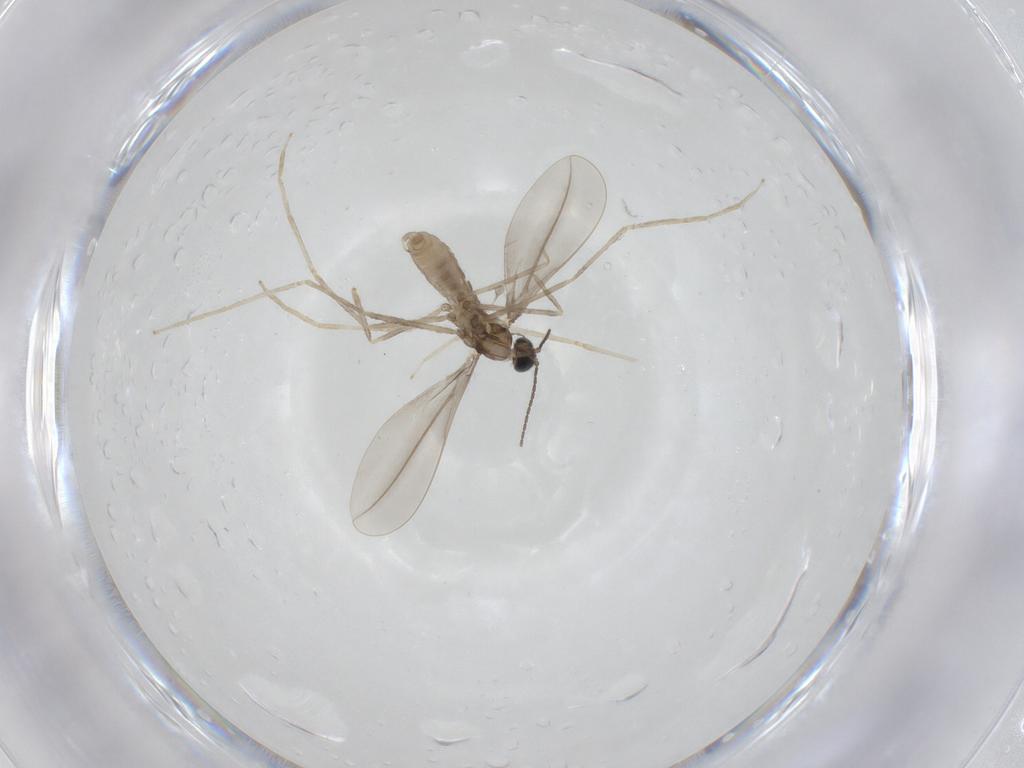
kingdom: Animalia
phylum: Arthropoda
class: Insecta
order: Diptera
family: Cecidomyiidae
